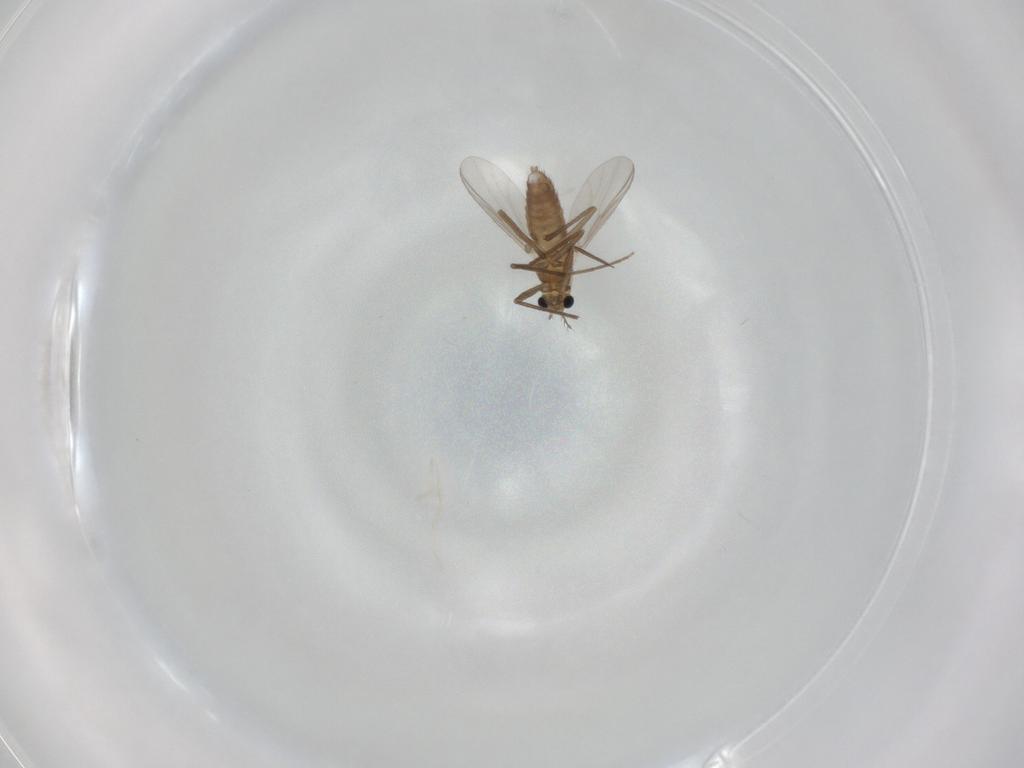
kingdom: Animalia
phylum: Arthropoda
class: Insecta
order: Diptera
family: Chironomidae
